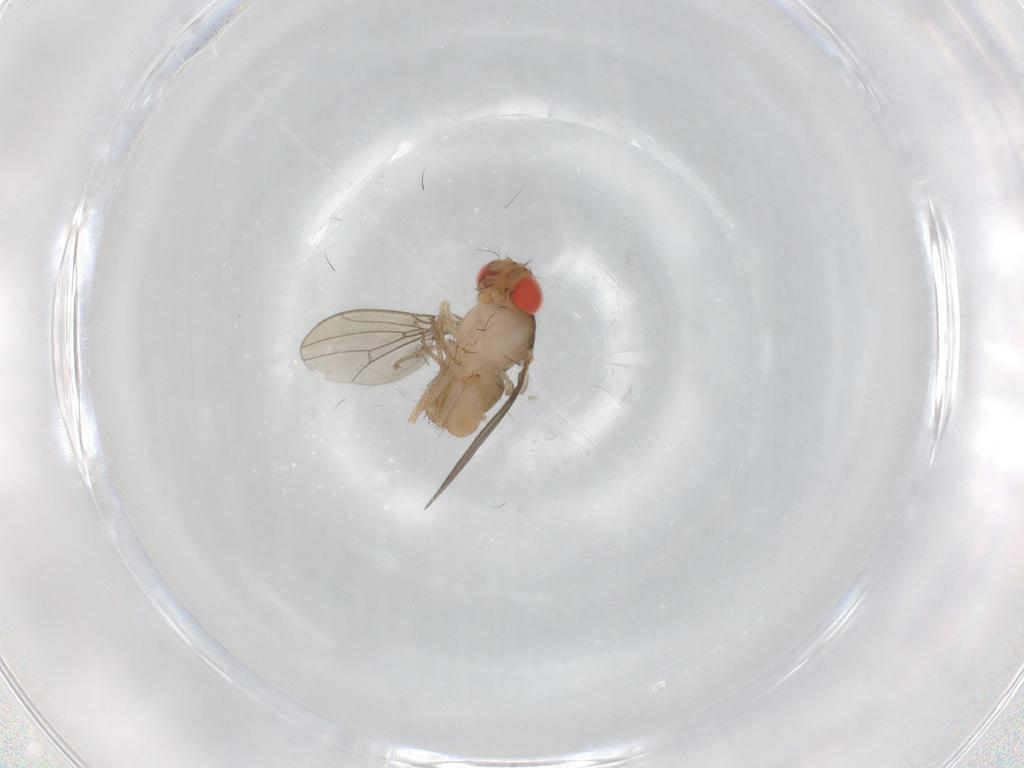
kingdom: Animalia
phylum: Arthropoda
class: Insecta
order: Diptera
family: Drosophilidae
